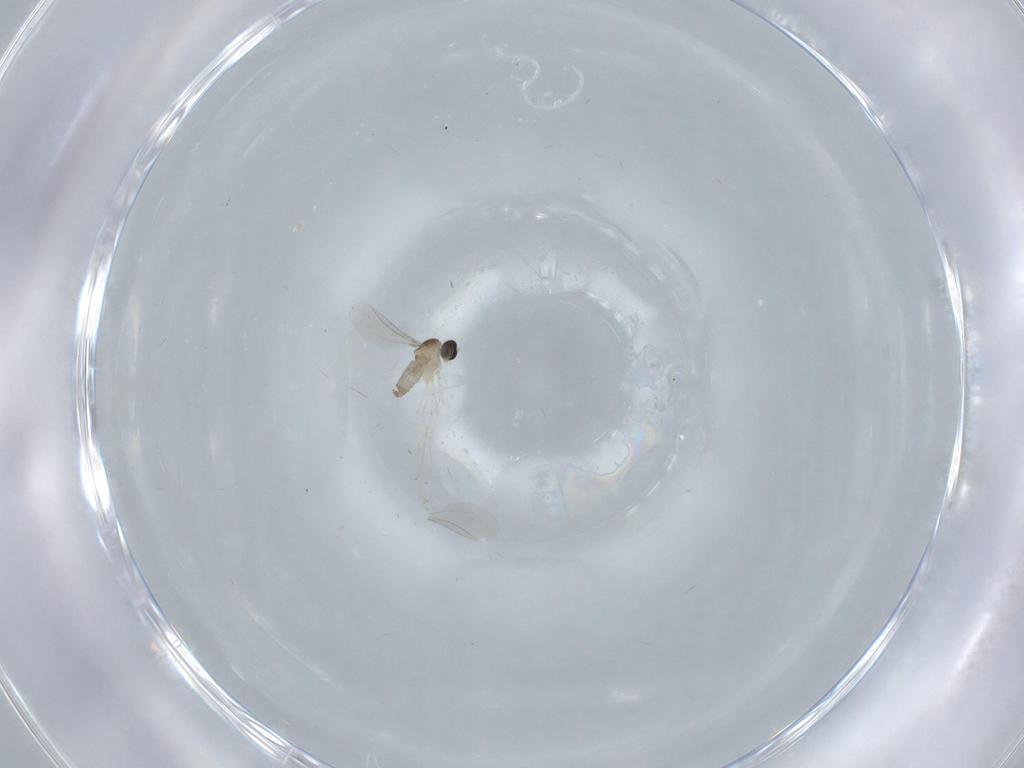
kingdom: Animalia
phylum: Arthropoda
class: Insecta
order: Diptera
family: Cecidomyiidae
